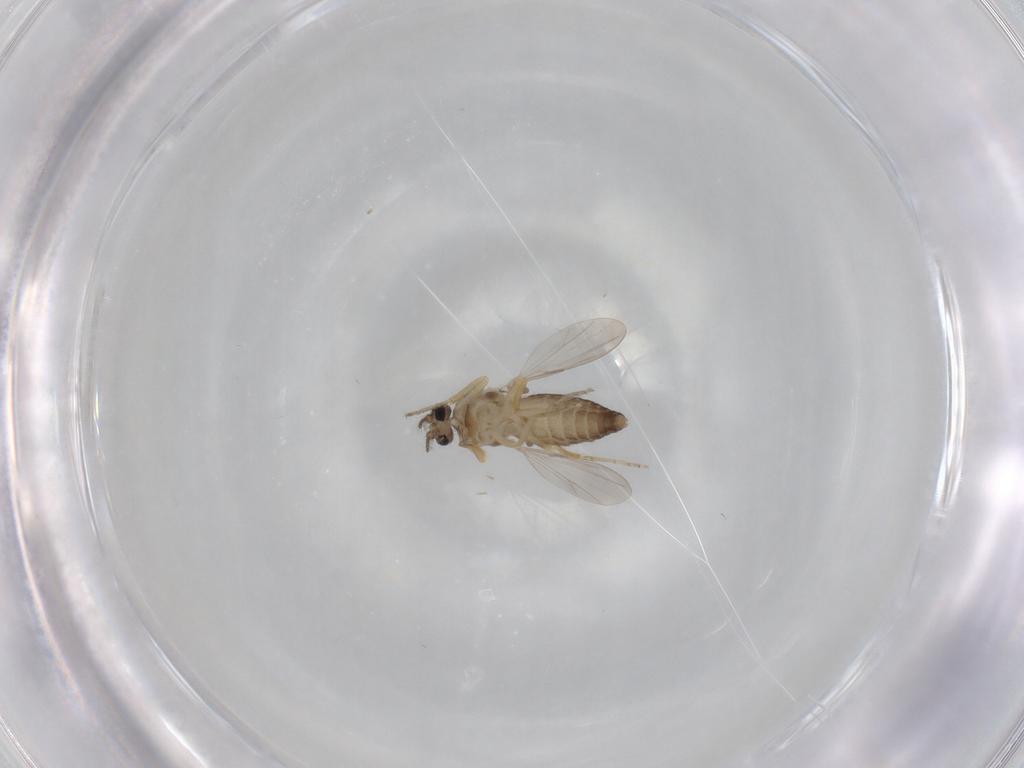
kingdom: Animalia
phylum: Arthropoda
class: Insecta
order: Diptera
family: Ceratopogonidae
